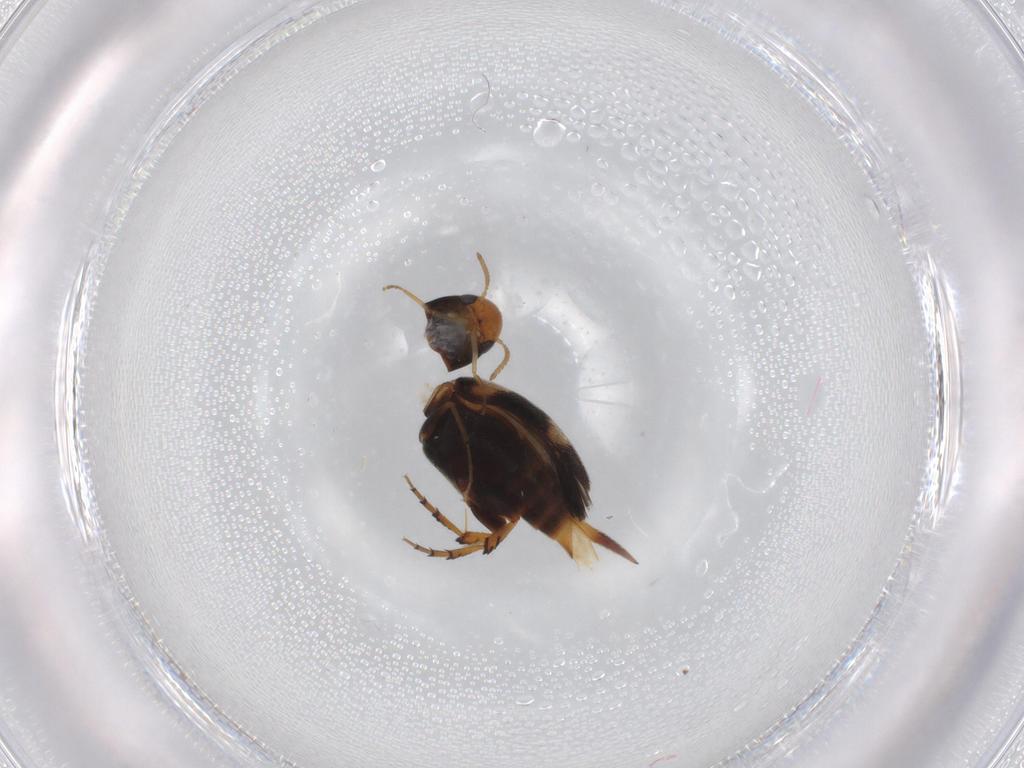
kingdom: Animalia
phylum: Arthropoda
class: Insecta
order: Coleoptera
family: Mordellidae
